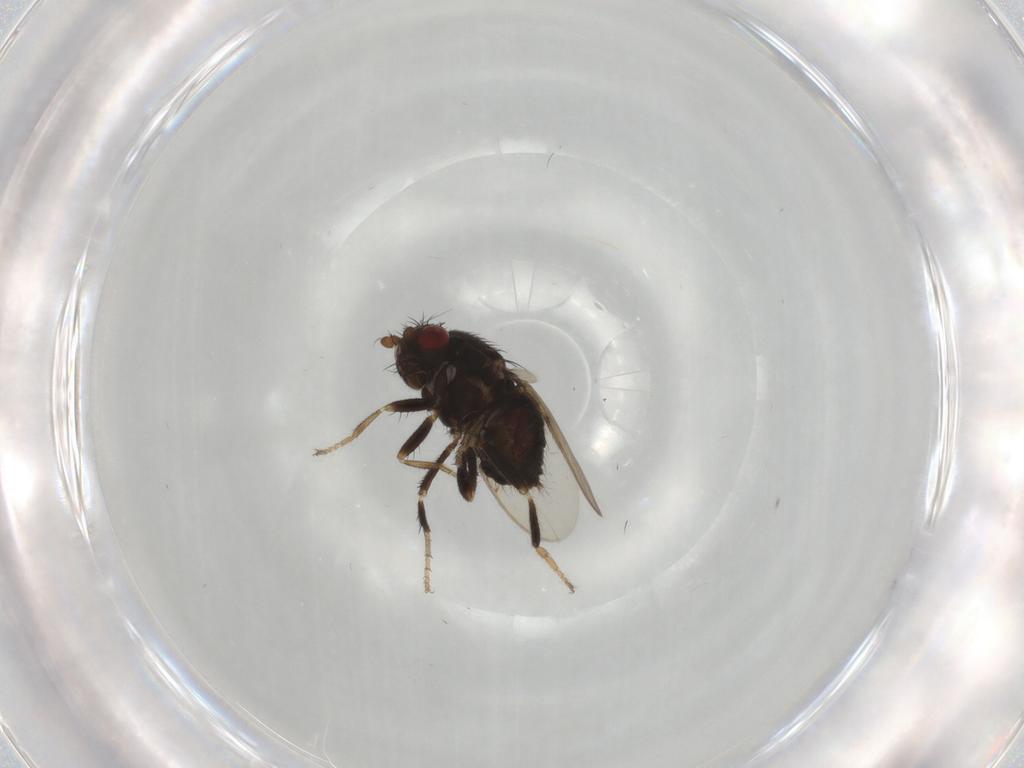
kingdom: Animalia
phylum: Arthropoda
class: Insecta
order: Diptera
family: Sphaeroceridae
